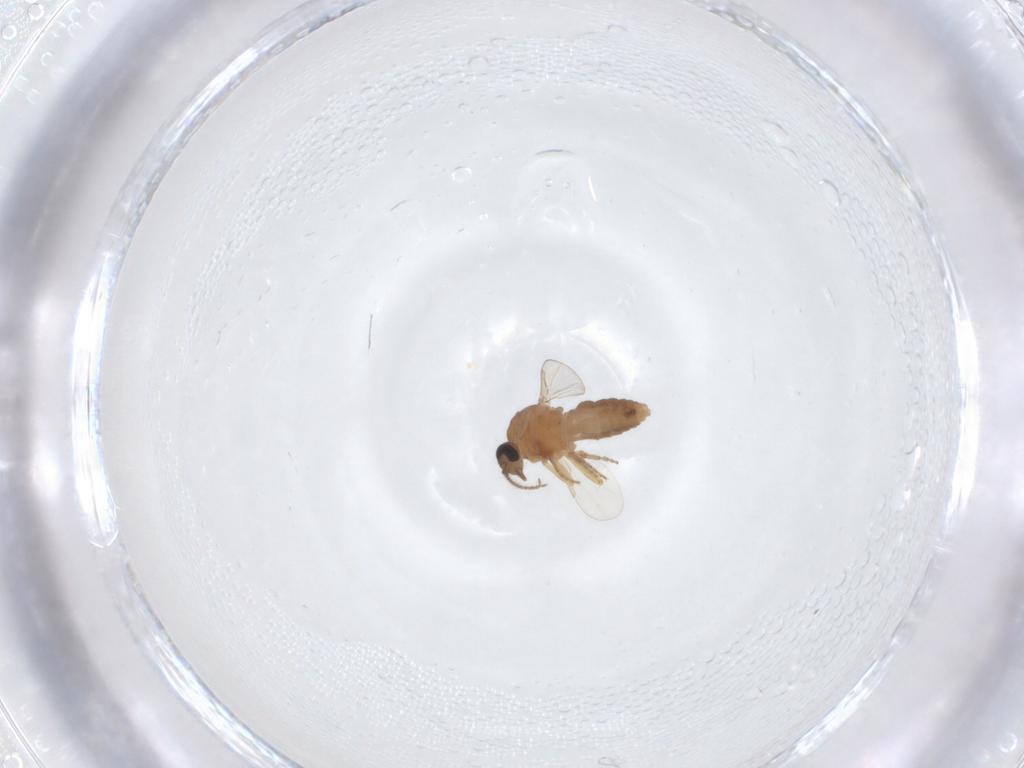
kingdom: Animalia
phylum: Arthropoda
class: Insecta
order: Diptera
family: Ceratopogonidae
